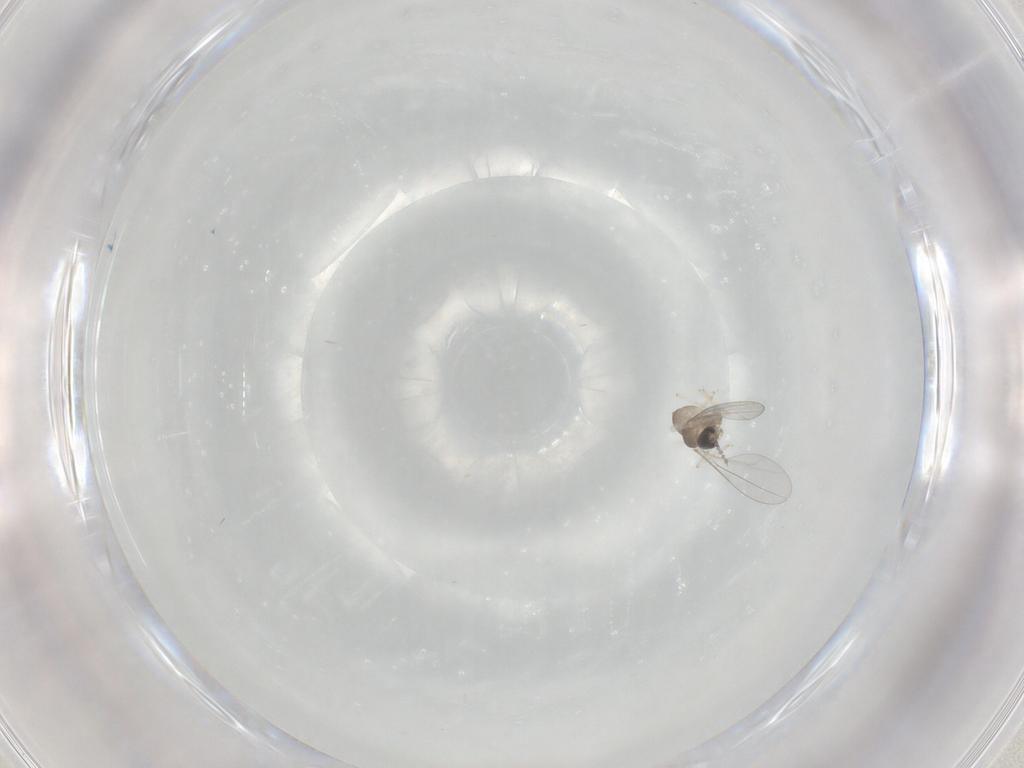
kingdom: Animalia
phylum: Arthropoda
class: Insecta
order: Diptera
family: Cecidomyiidae
